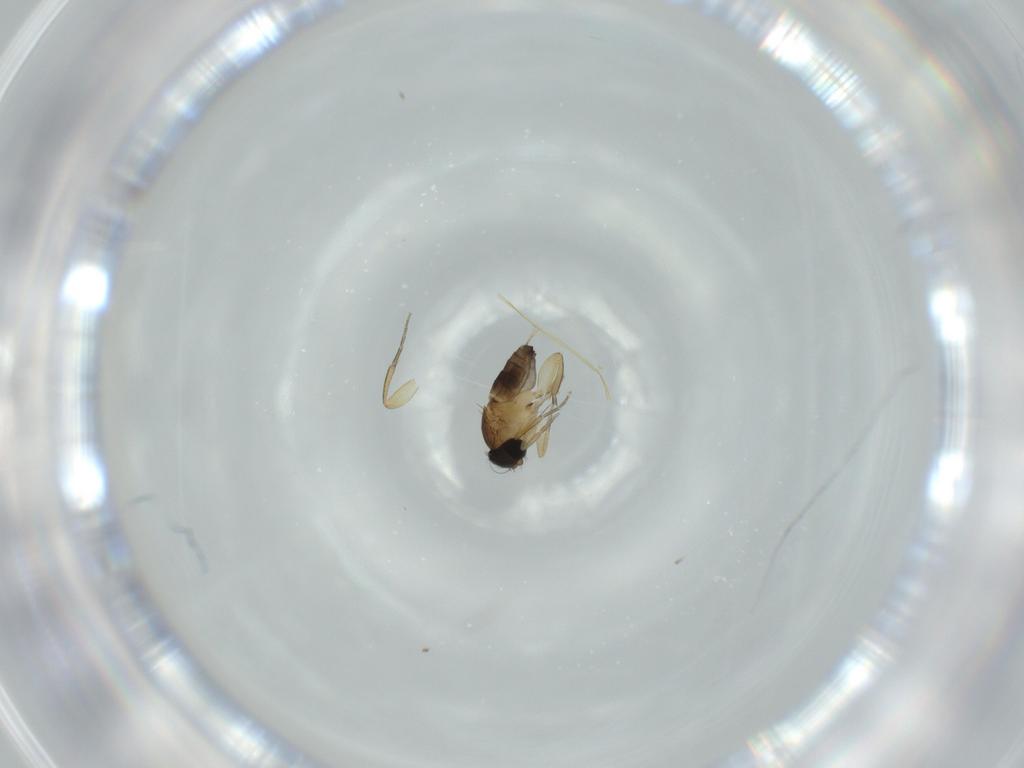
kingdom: Animalia
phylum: Arthropoda
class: Insecta
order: Diptera
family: Phoridae
